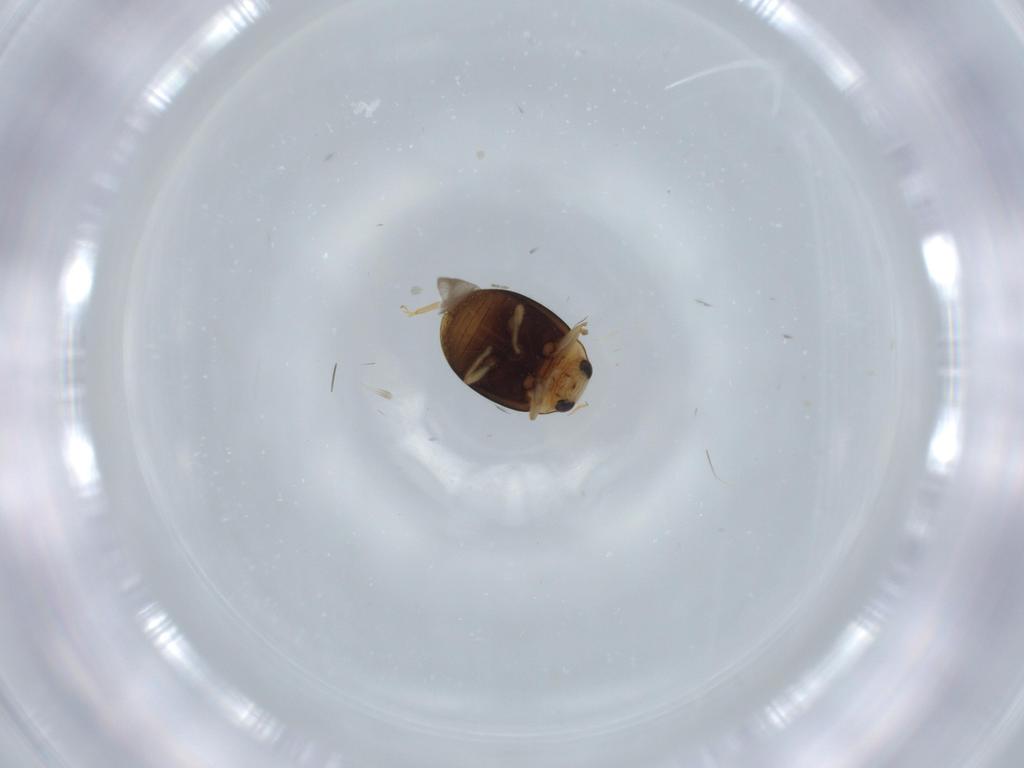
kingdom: Animalia
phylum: Arthropoda
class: Insecta
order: Coleoptera
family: Coccinellidae
